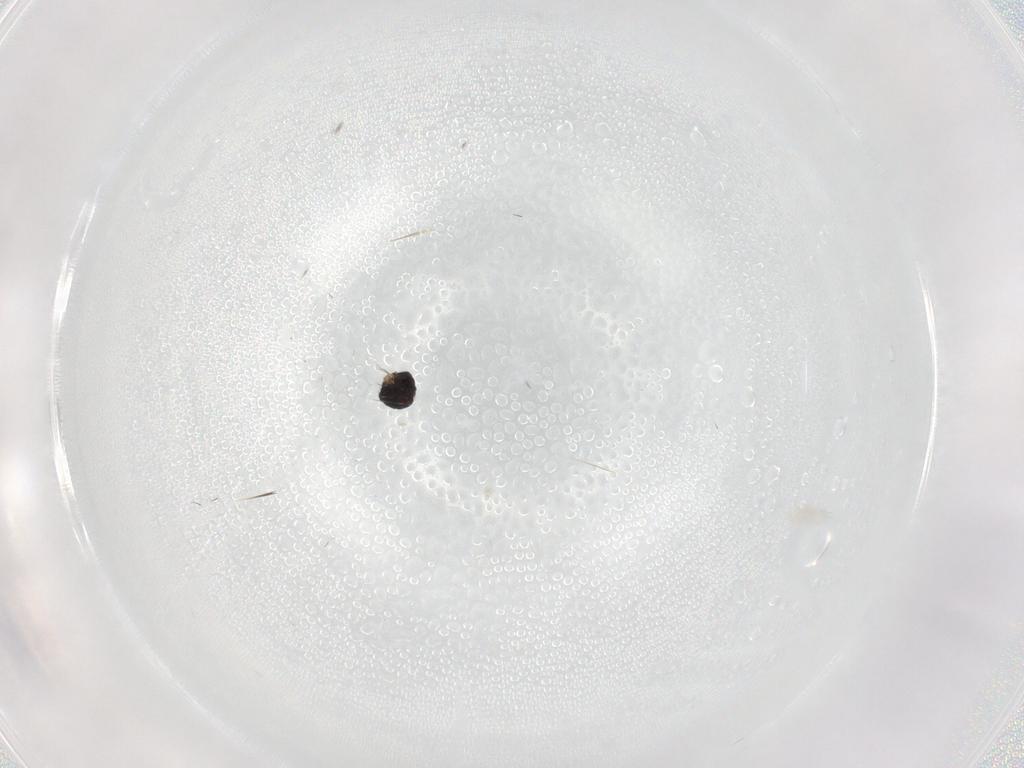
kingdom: Animalia
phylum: Arthropoda
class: Insecta
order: Diptera
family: Phoridae
